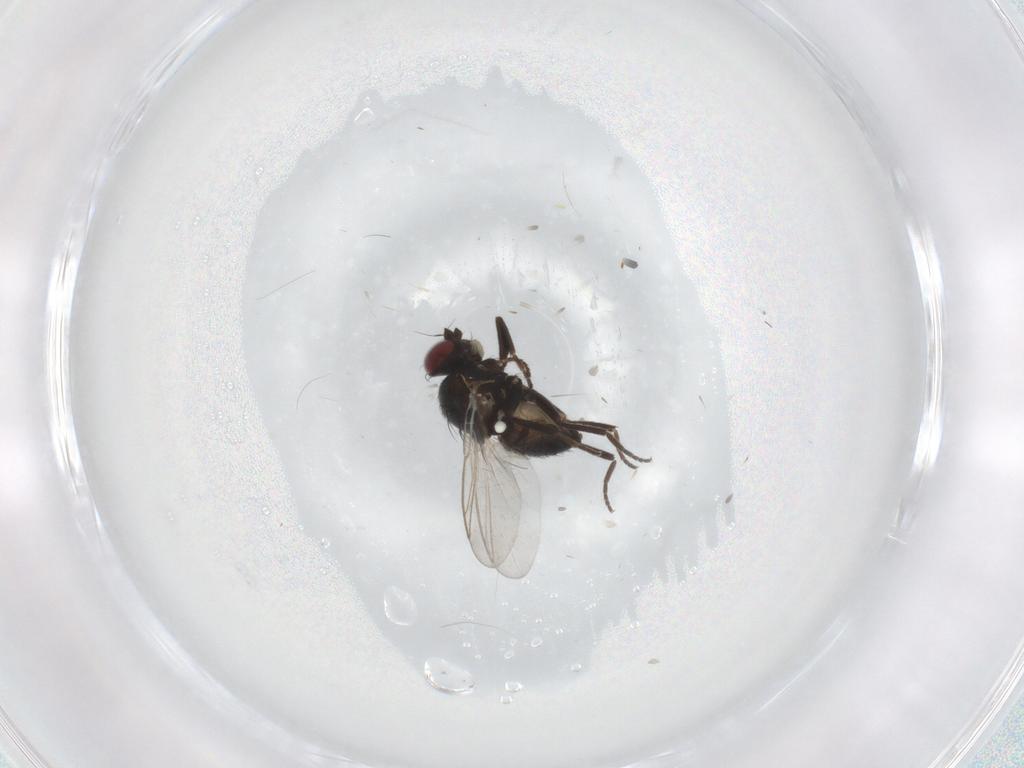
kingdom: Animalia
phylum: Arthropoda
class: Insecta
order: Diptera
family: Agromyzidae
